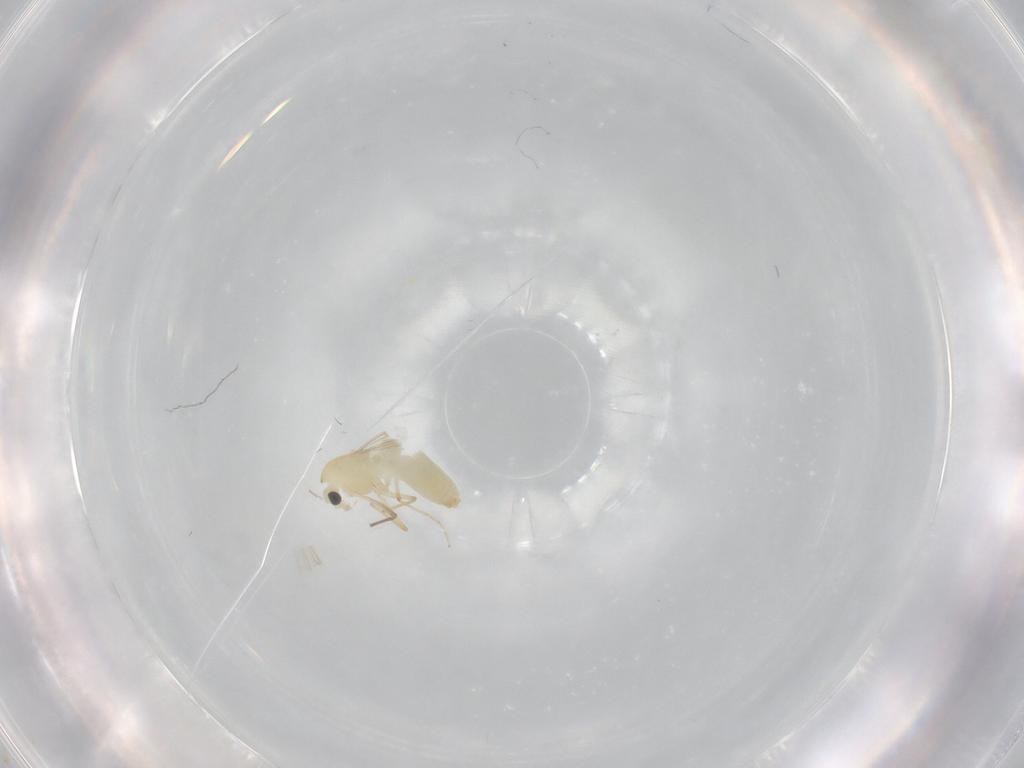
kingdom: Animalia
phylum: Arthropoda
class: Insecta
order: Diptera
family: Chironomidae
